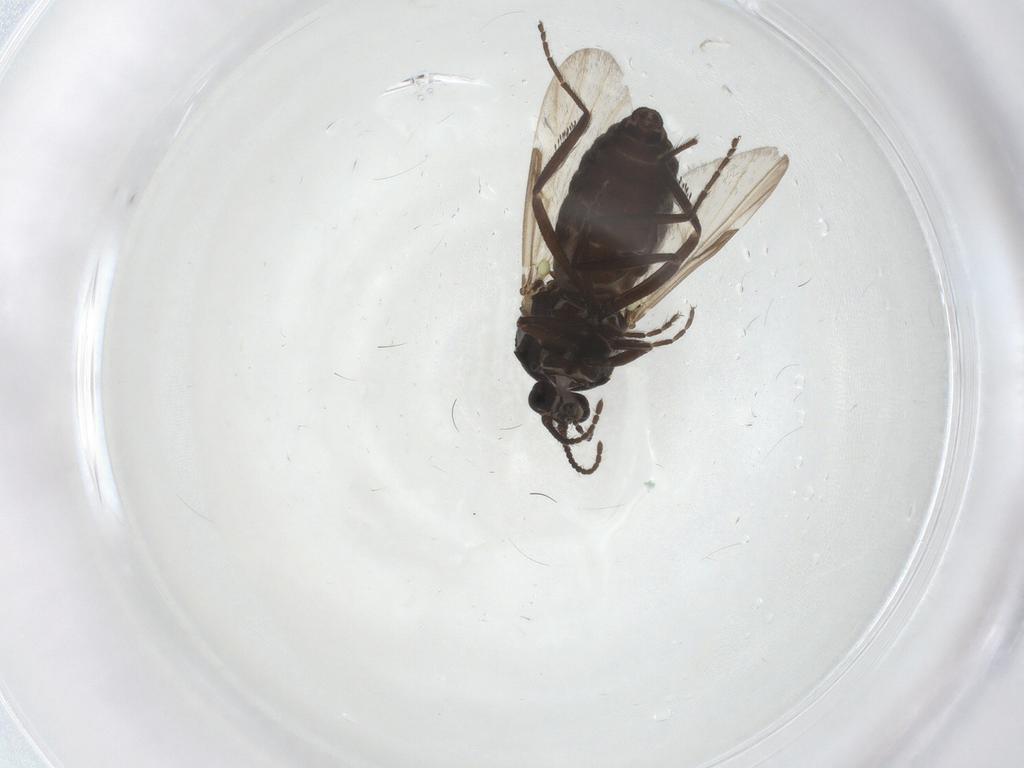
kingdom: Animalia
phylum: Arthropoda
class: Insecta
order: Diptera
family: Ceratopogonidae
